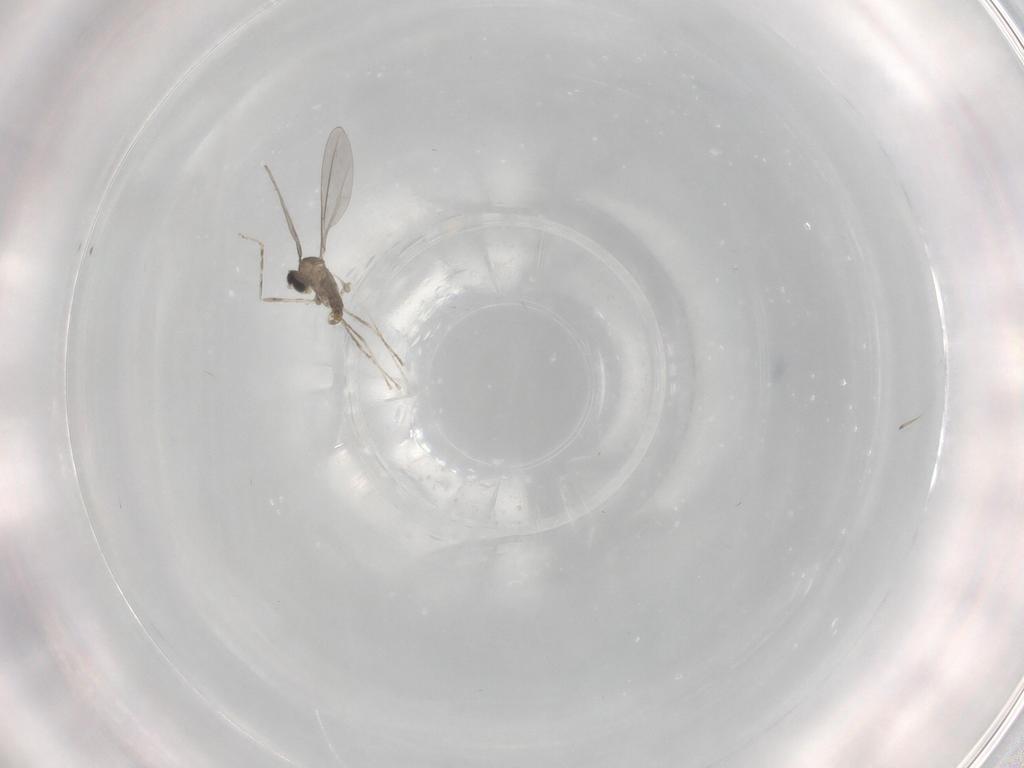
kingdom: Animalia
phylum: Arthropoda
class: Insecta
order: Diptera
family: Cecidomyiidae
